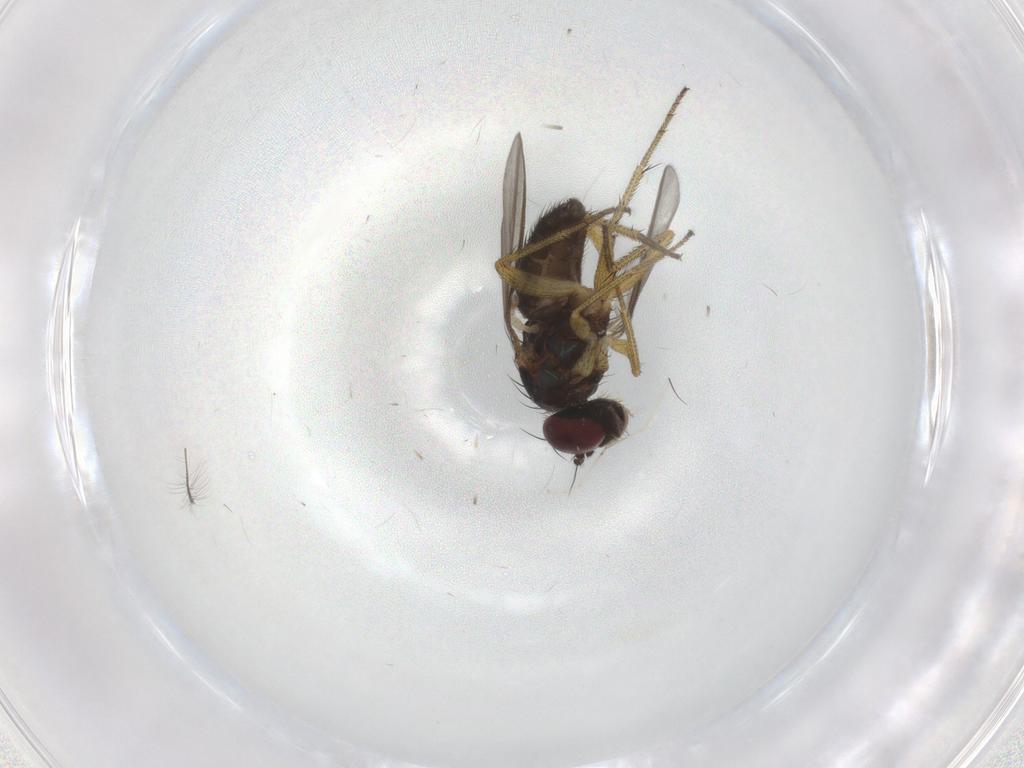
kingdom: Animalia
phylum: Arthropoda
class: Insecta
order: Diptera
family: Chironomidae
